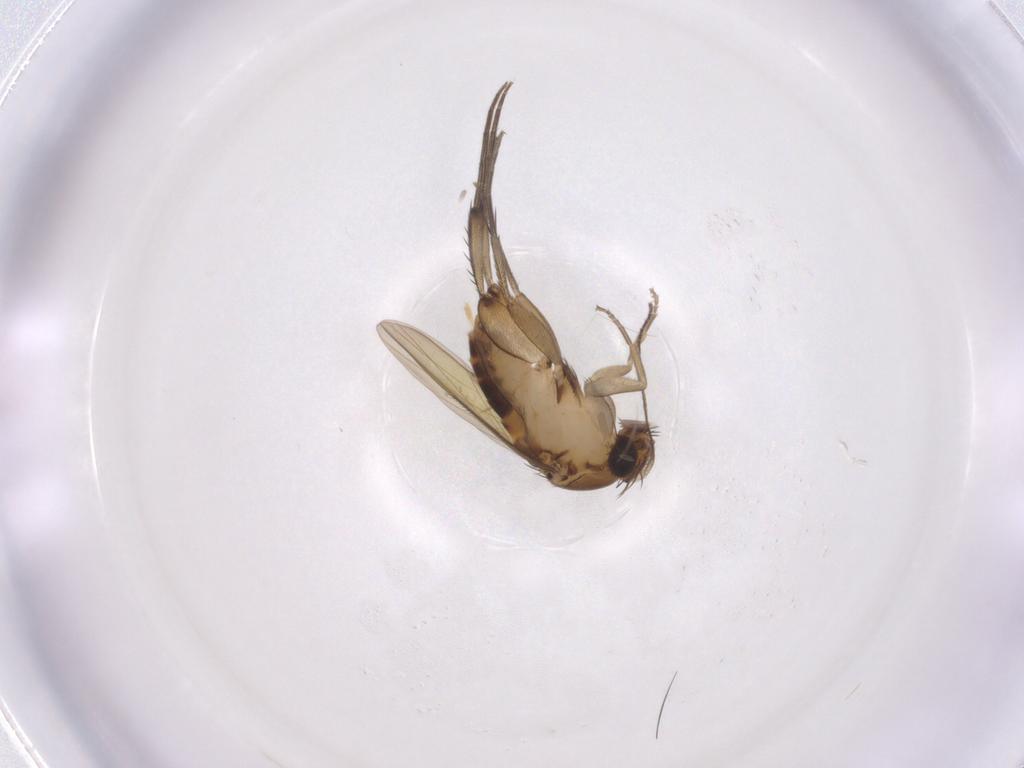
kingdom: Animalia
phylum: Arthropoda
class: Insecta
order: Diptera
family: Phoridae
